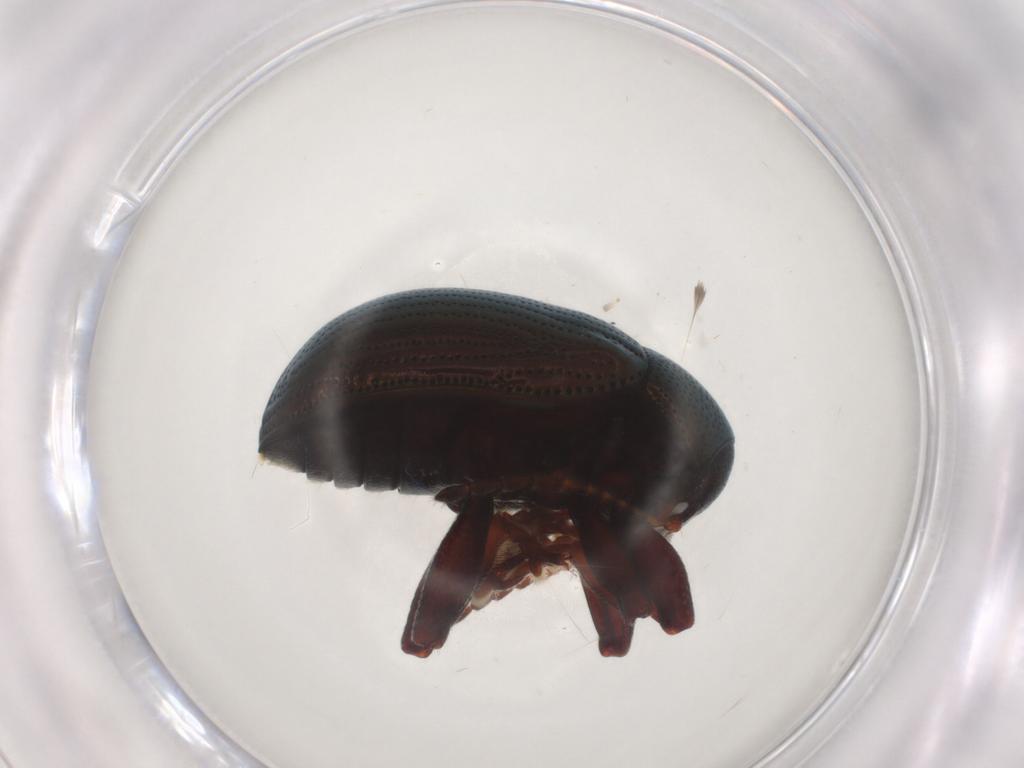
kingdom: Animalia
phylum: Arthropoda
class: Insecta
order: Coleoptera
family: Chrysomelidae
